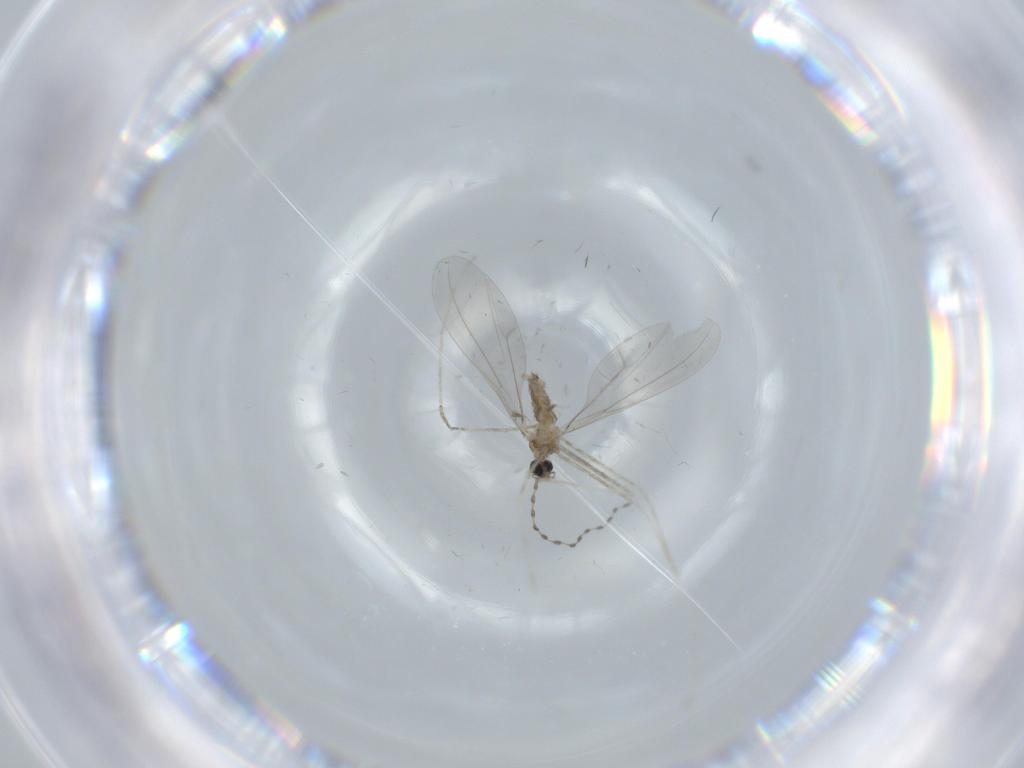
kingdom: Animalia
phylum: Arthropoda
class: Insecta
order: Diptera
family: Cecidomyiidae
